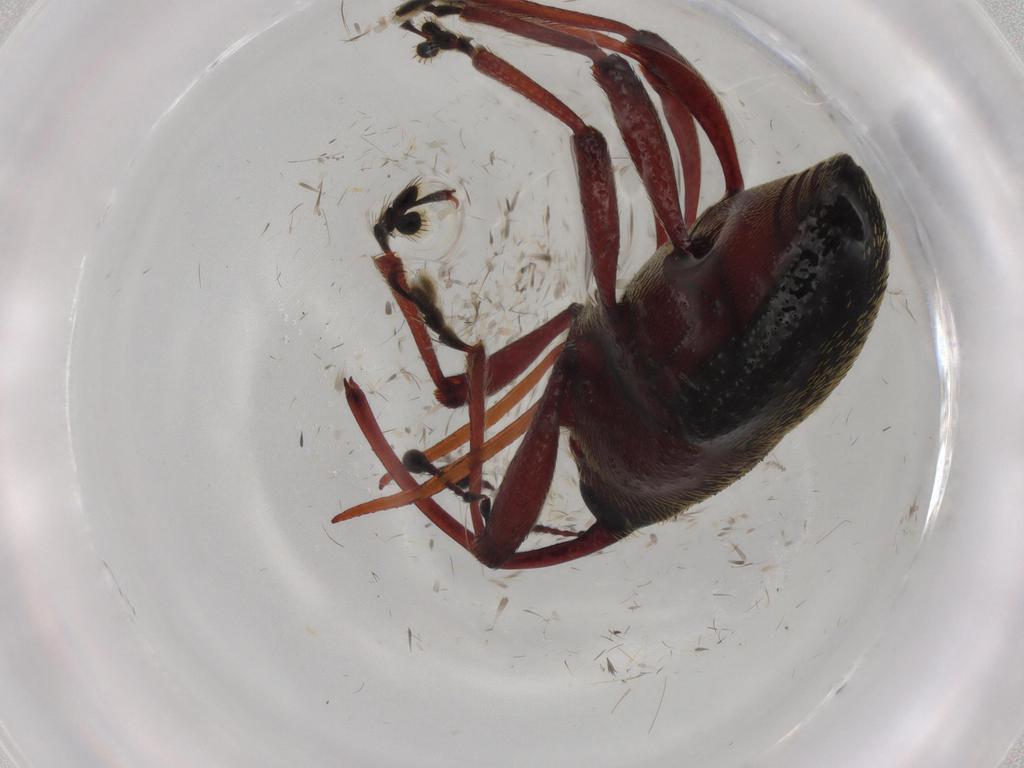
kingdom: Animalia
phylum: Arthropoda
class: Insecta
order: Coleoptera
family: Curculionidae
